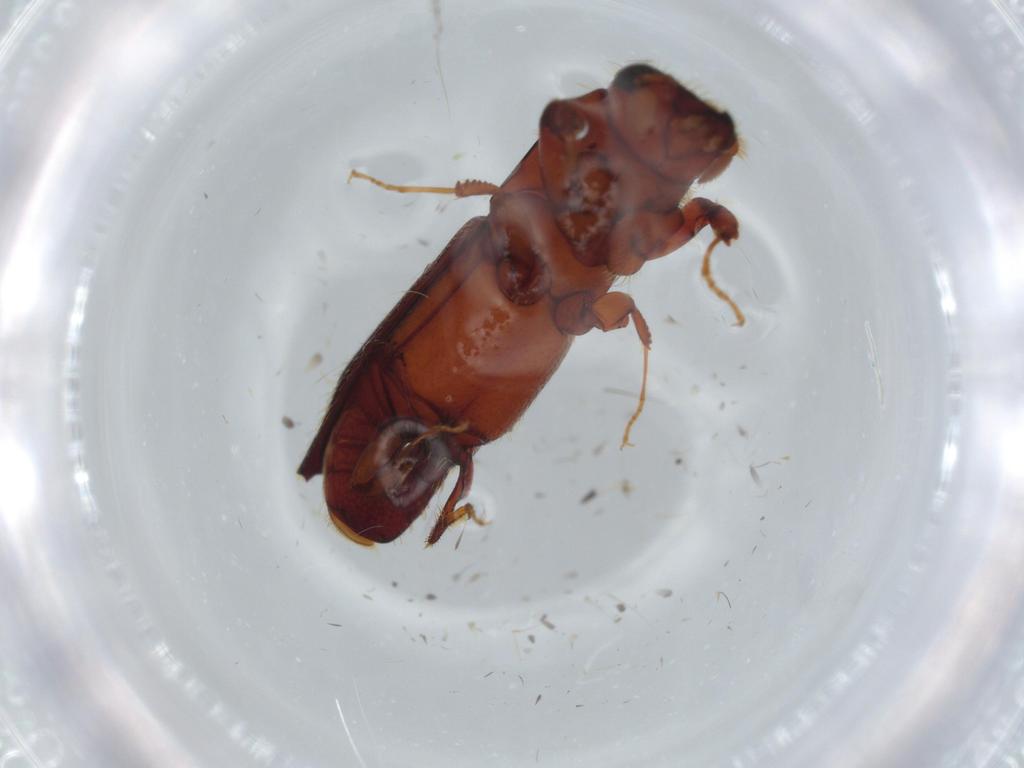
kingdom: Animalia
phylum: Arthropoda
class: Insecta
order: Coleoptera
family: Curculionidae
